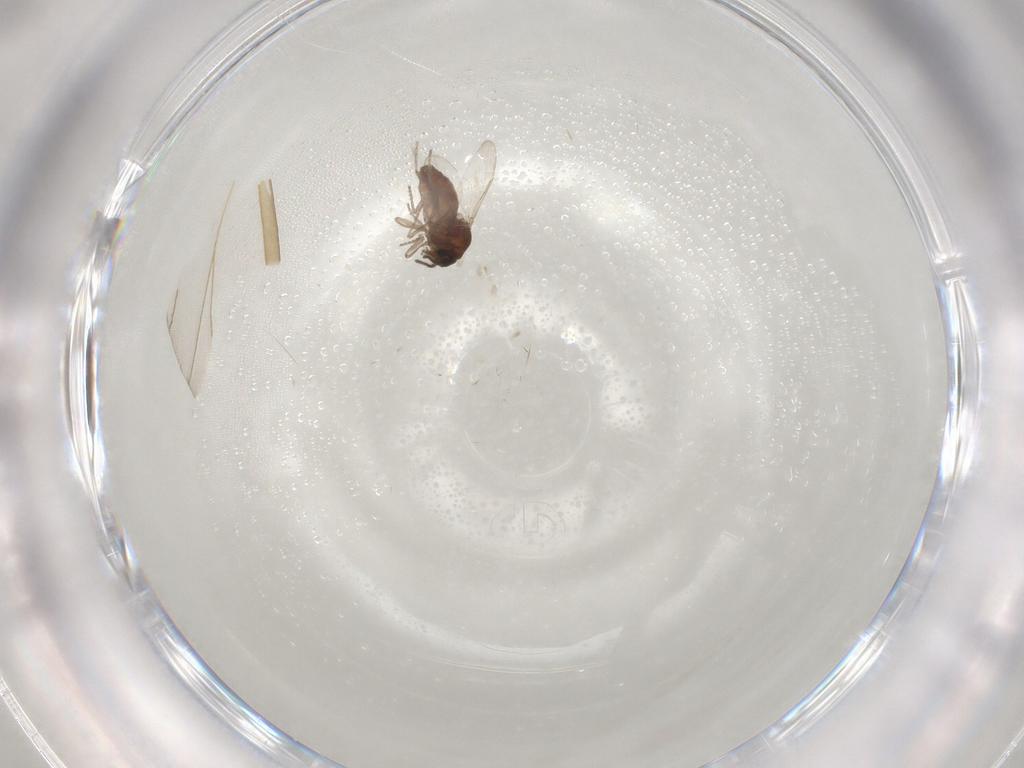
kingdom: Animalia
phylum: Arthropoda
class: Insecta
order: Diptera
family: Ceratopogonidae
